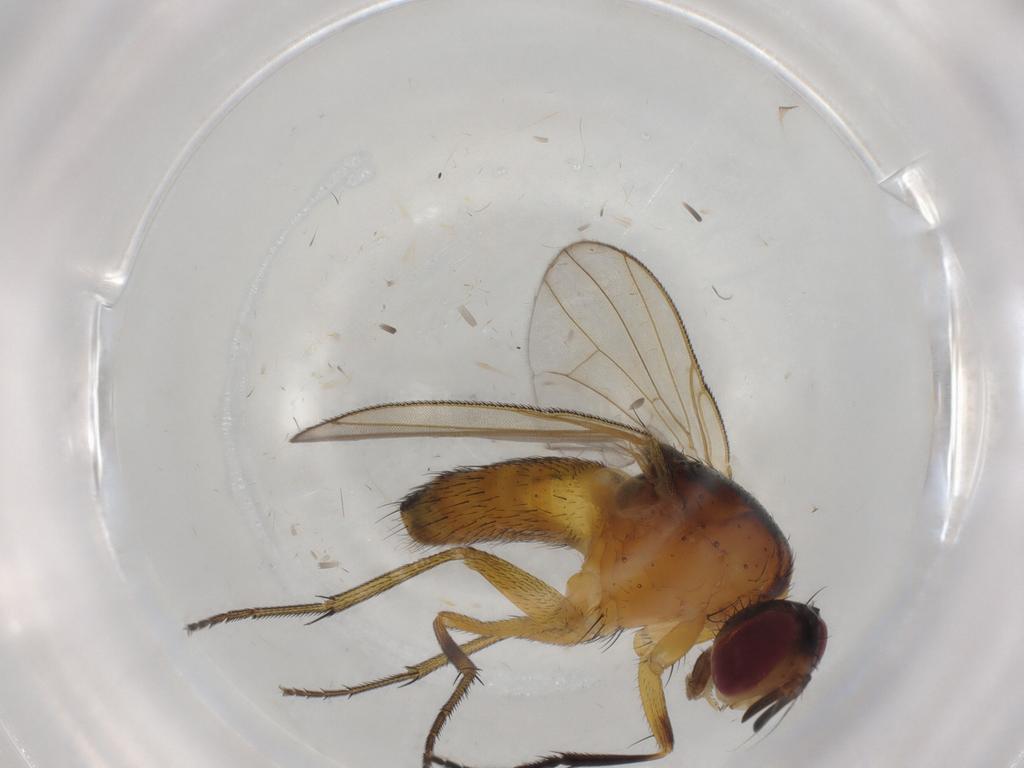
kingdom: Animalia
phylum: Arthropoda
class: Insecta
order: Diptera
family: Muscidae
